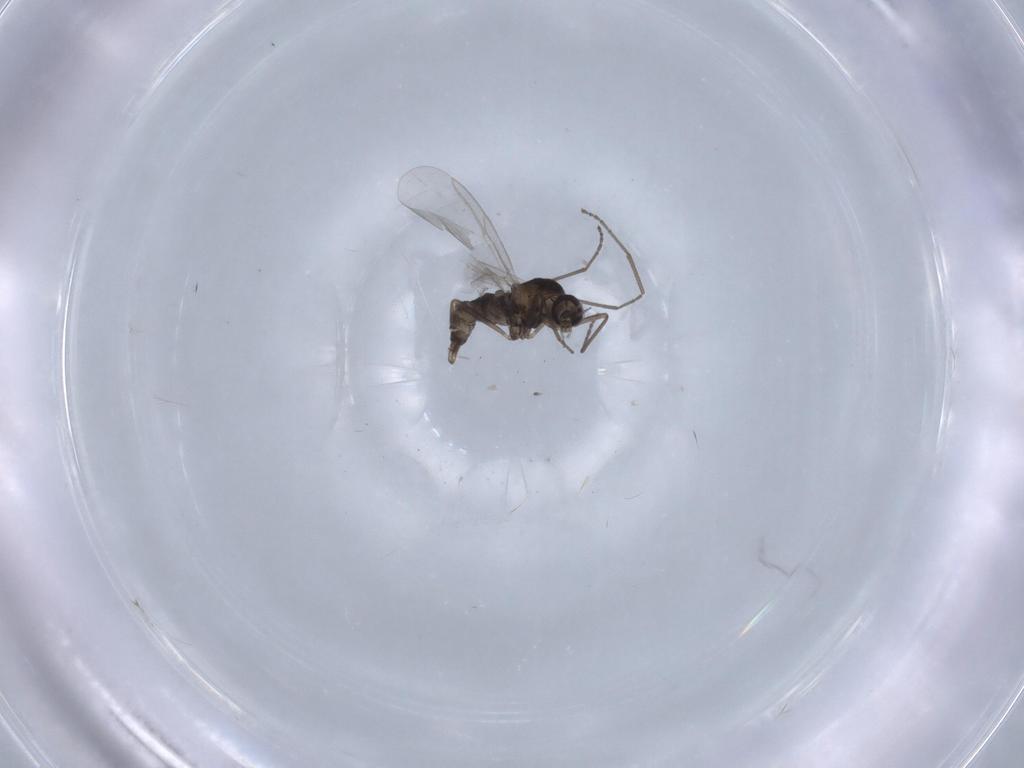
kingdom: Animalia
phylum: Arthropoda
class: Insecta
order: Diptera
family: Cecidomyiidae
